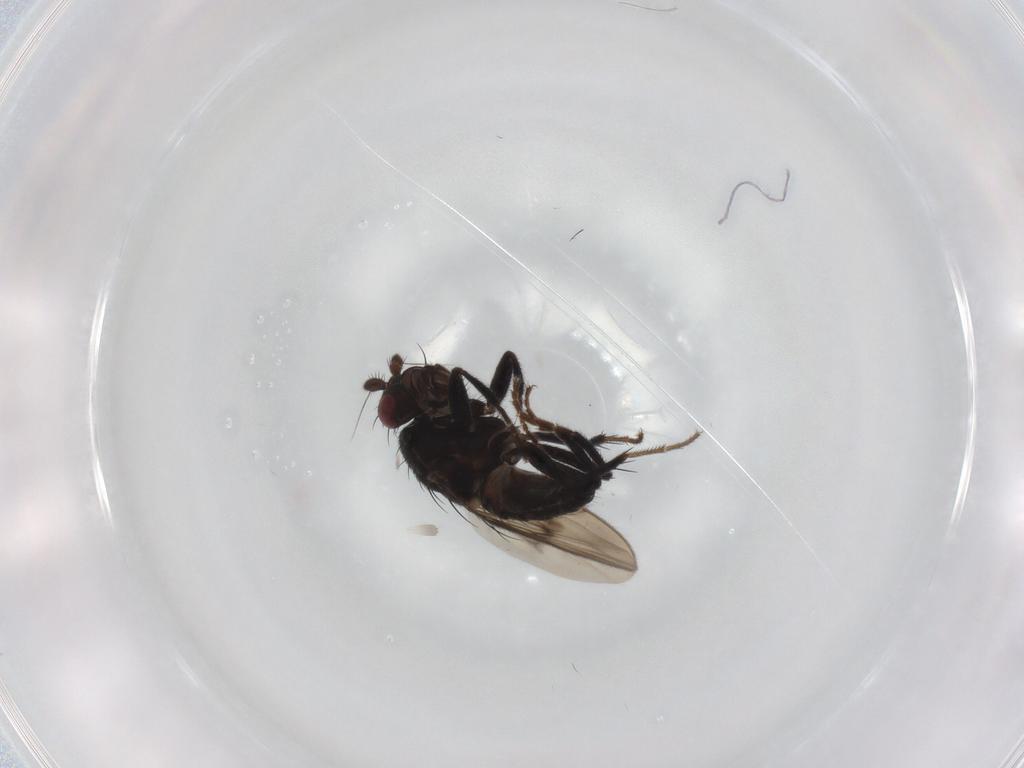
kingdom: Animalia
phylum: Arthropoda
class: Insecta
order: Diptera
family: Sphaeroceridae
